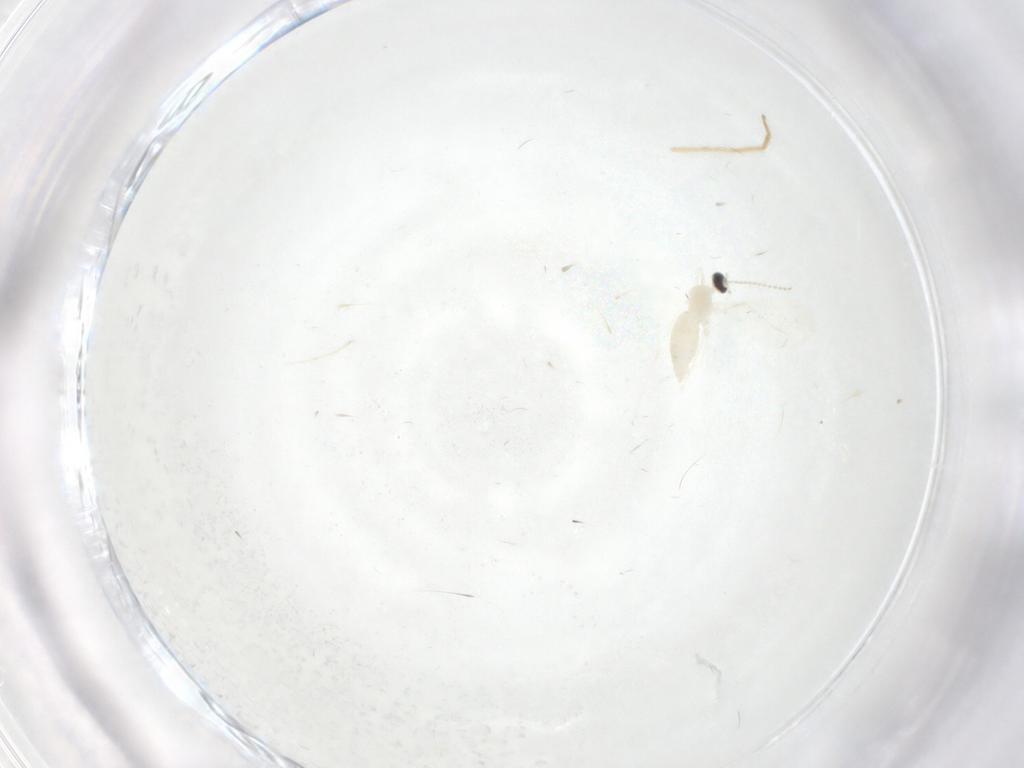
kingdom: Animalia
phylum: Arthropoda
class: Insecta
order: Diptera
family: Cecidomyiidae
